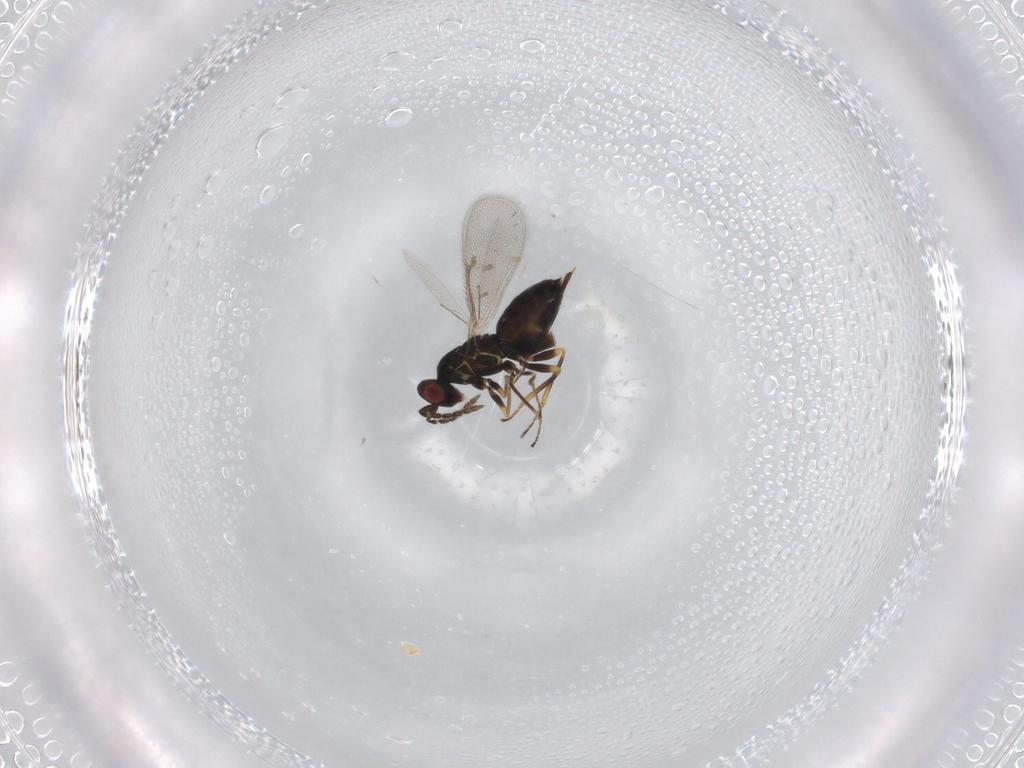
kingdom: Animalia
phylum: Arthropoda
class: Insecta
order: Hymenoptera
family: Eulophidae
